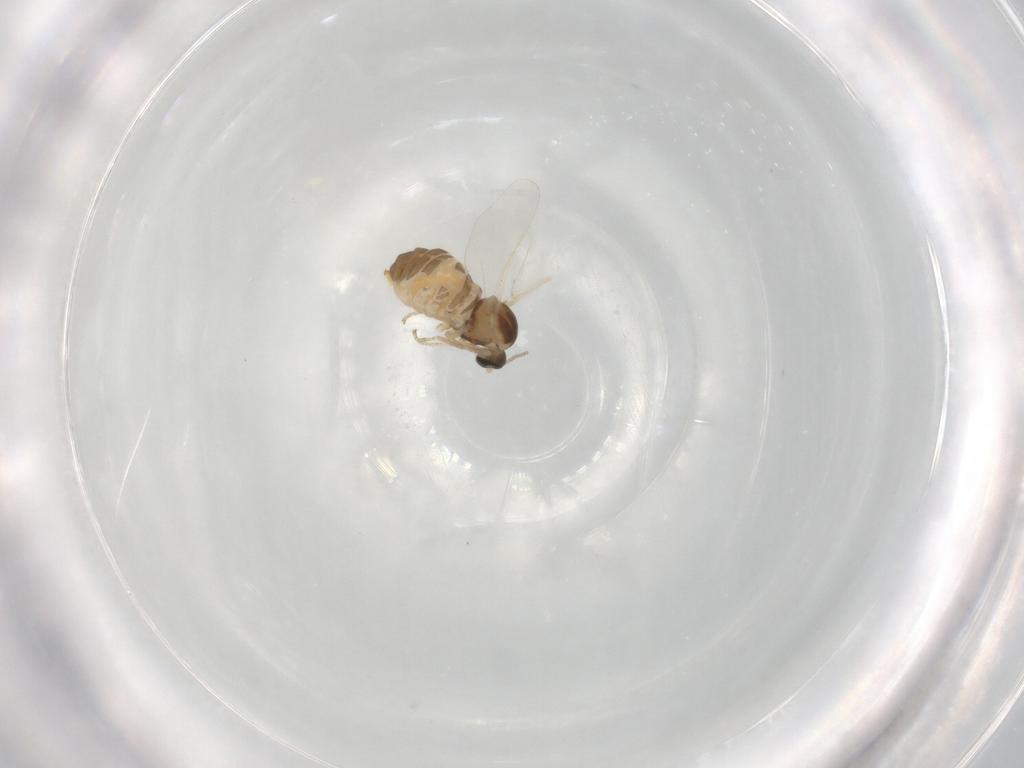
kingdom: Animalia
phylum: Arthropoda
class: Insecta
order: Diptera
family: Cecidomyiidae
